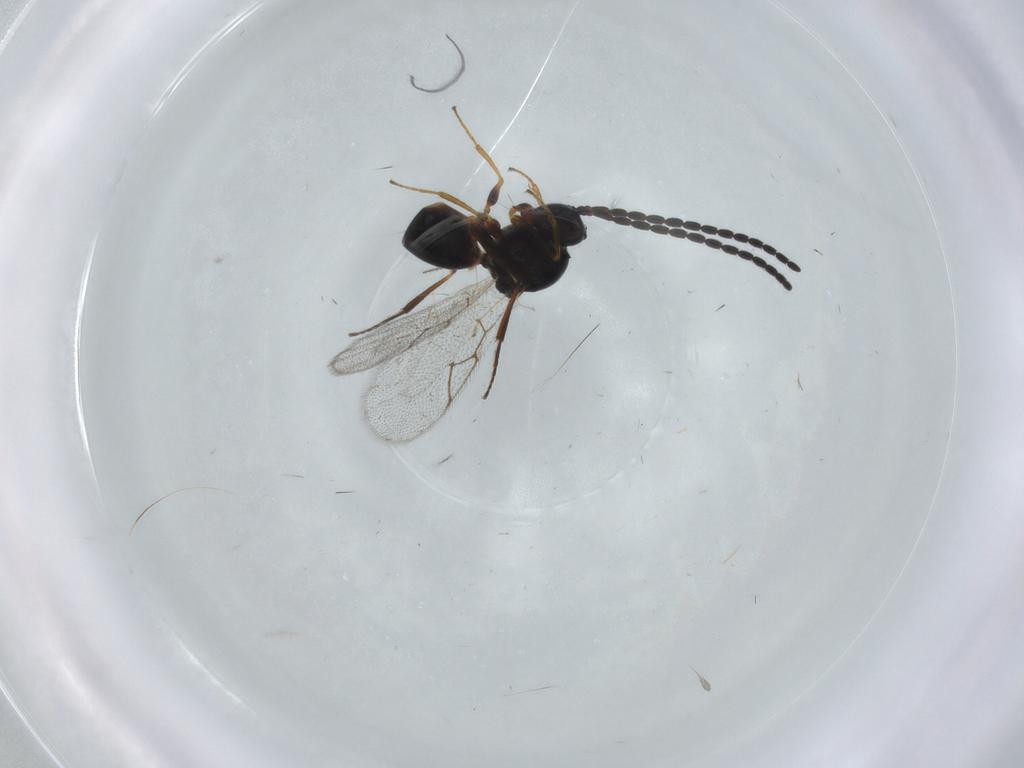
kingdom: Animalia
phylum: Arthropoda
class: Insecta
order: Hymenoptera
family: Figitidae
